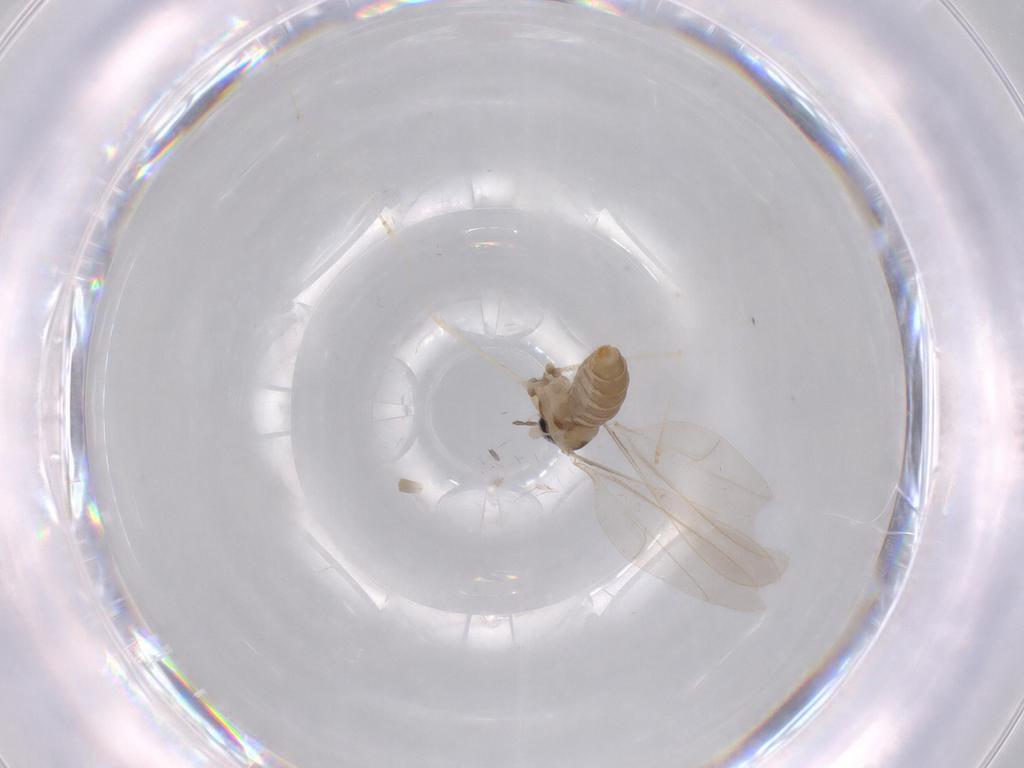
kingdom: Animalia
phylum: Arthropoda
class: Insecta
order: Diptera
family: Cecidomyiidae
